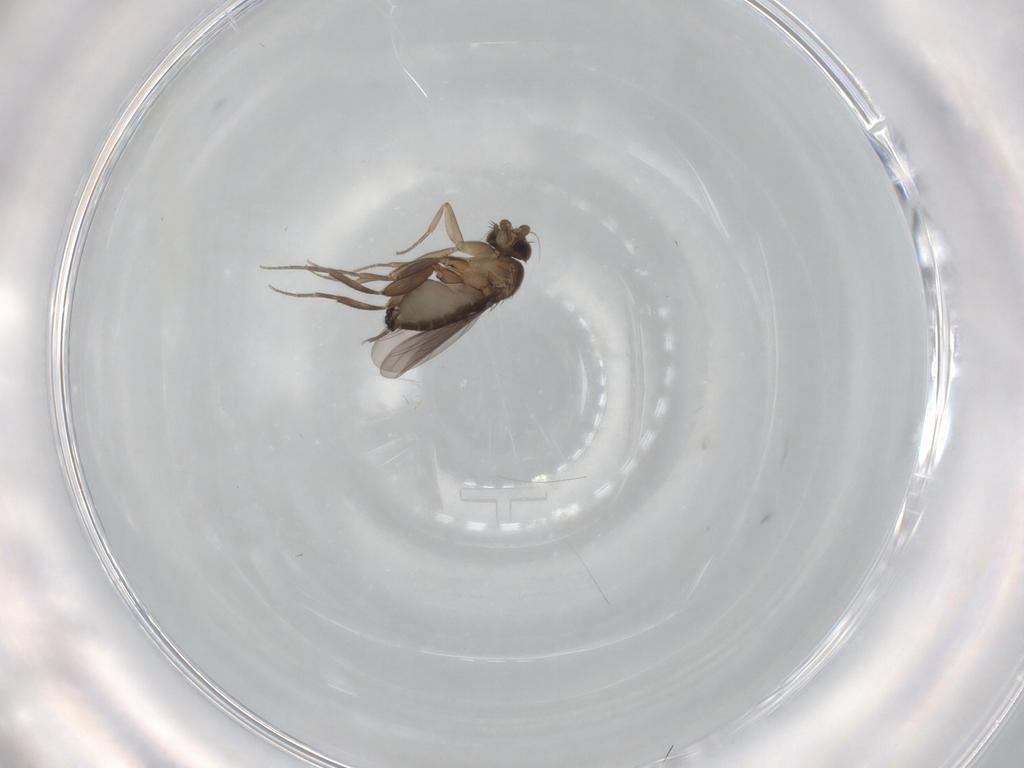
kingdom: Animalia
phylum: Arthropoda
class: Insecta
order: Diptera
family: Phoridae
